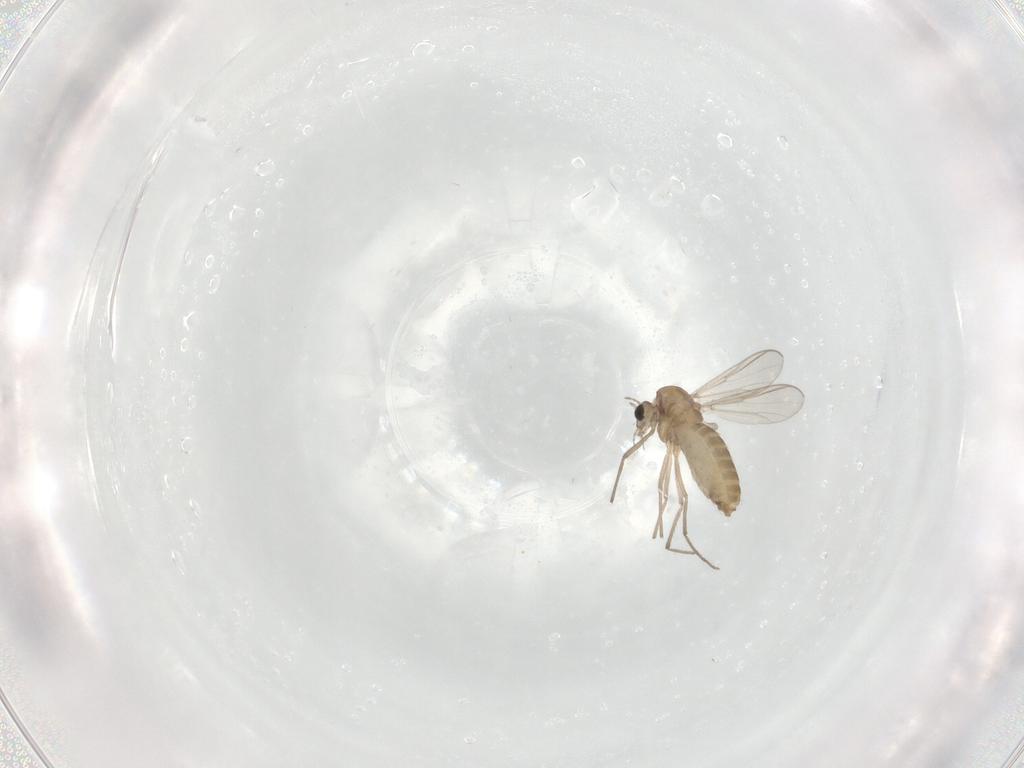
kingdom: Animalia
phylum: Arthropoda
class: Insecta
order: Diptera
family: Chironomidae
